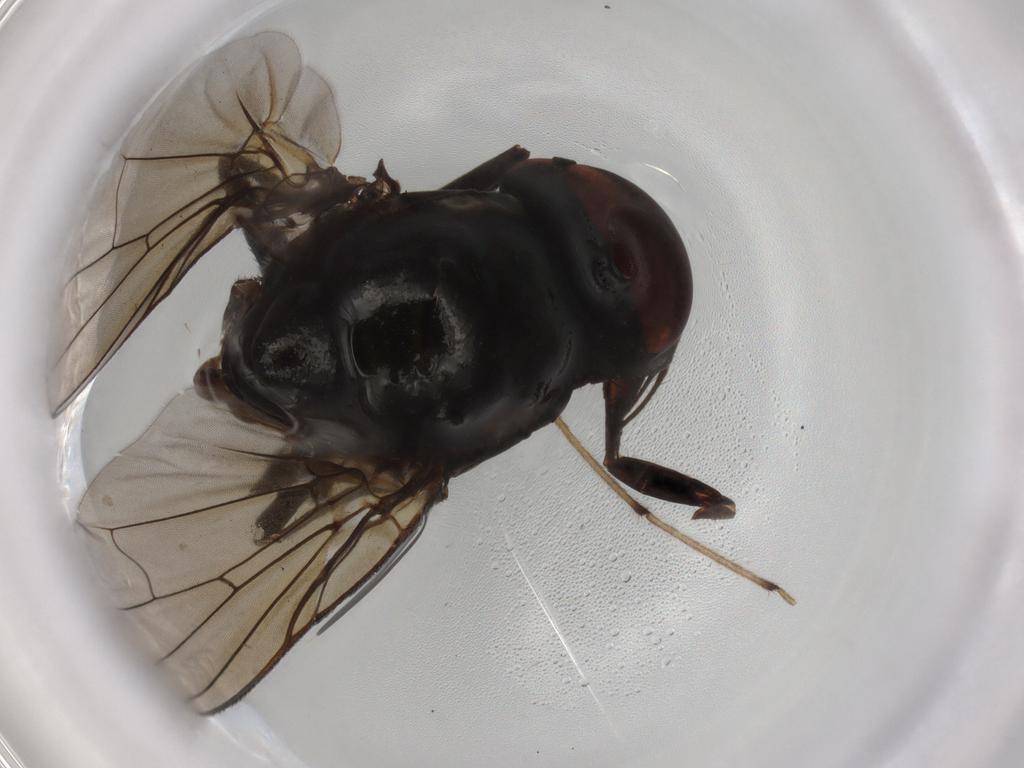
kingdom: Animalia
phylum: Arthropoda
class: Insecta
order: Diptera
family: Muscidae
